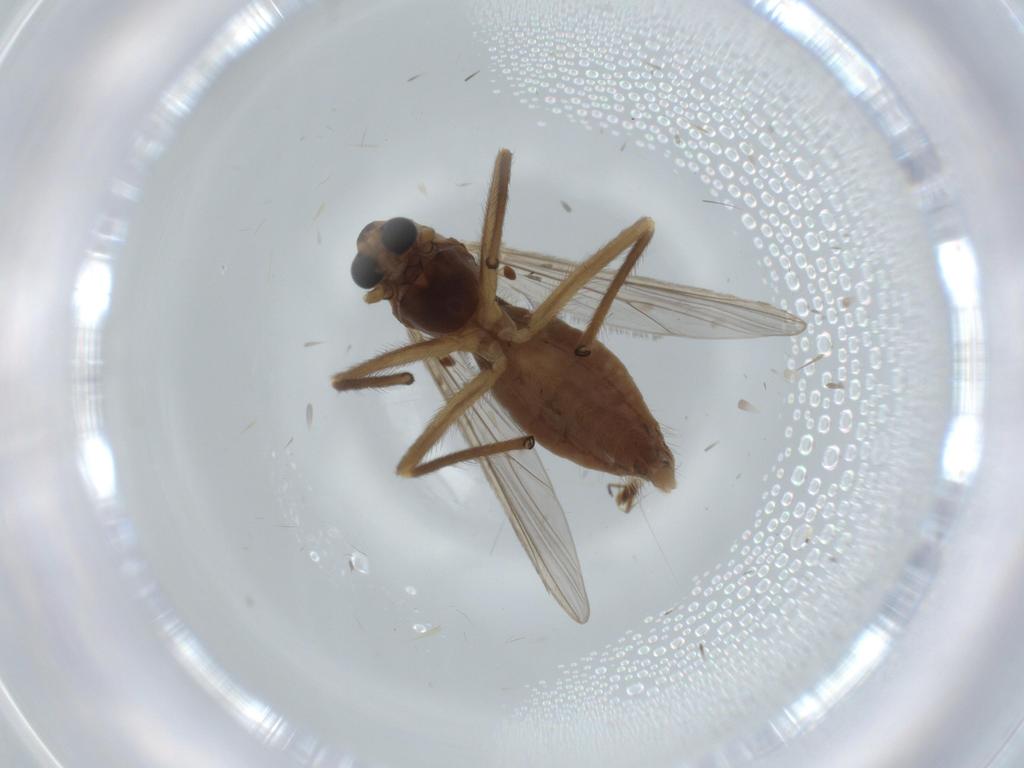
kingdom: Animalia
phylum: Arthropoda
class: Insecta
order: Diptera
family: Chironomidae
